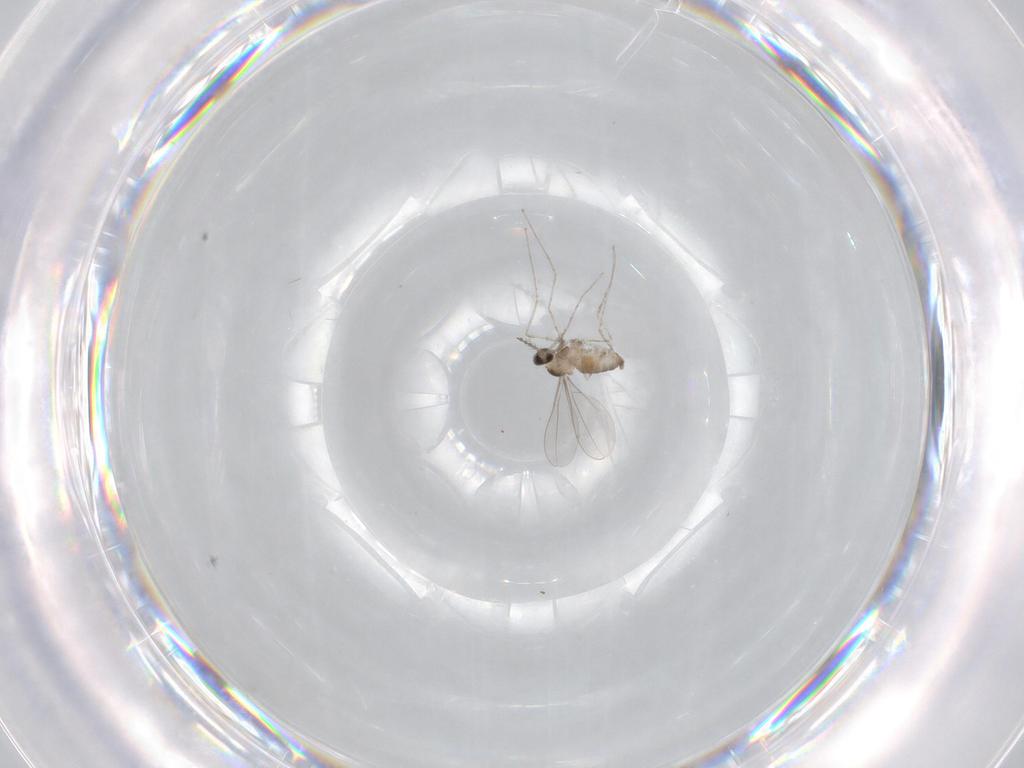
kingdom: Animalia
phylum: Arthropoda
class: Insecta
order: Diptera
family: Cecidomyiidae
